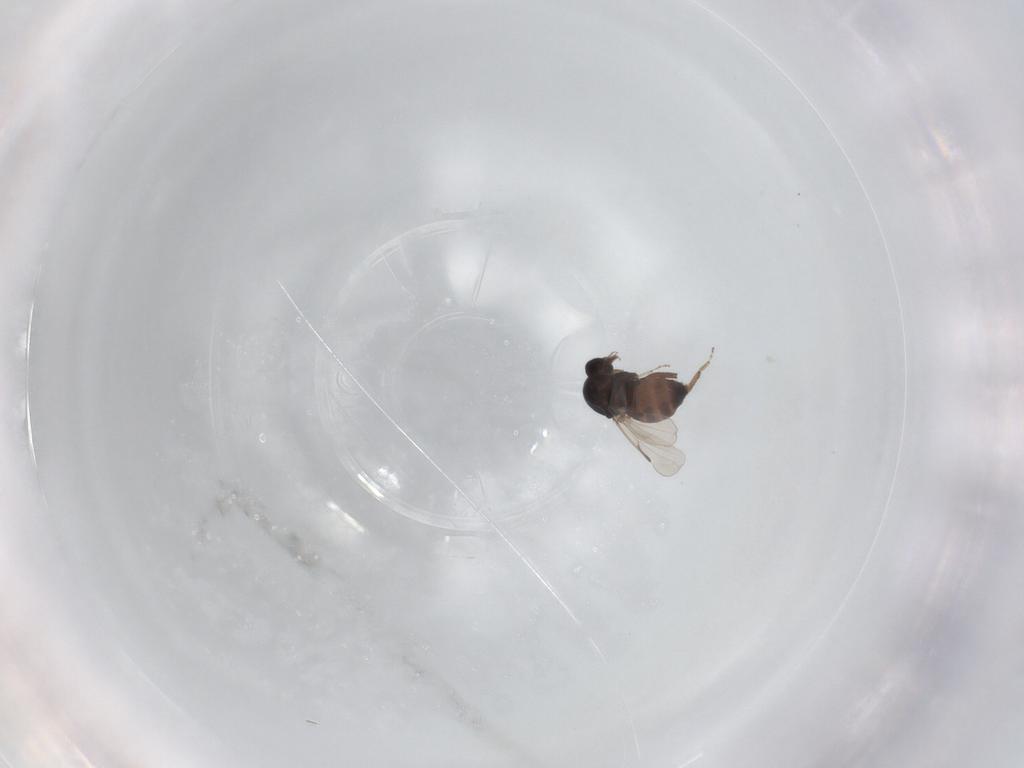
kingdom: Animalia
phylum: Arthropoda
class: Insecta
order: Diptera
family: Ceratopogonidae
